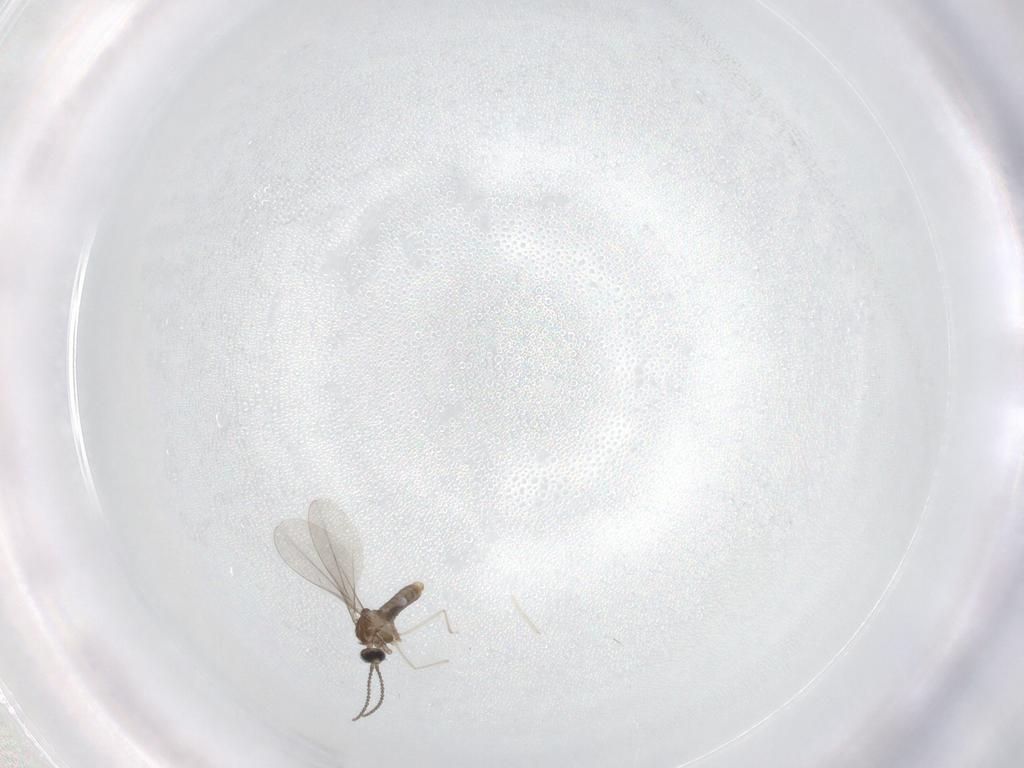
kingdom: Animalia
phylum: Arthropoda
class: Insecta
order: Diptera
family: Cecidomyiidae
